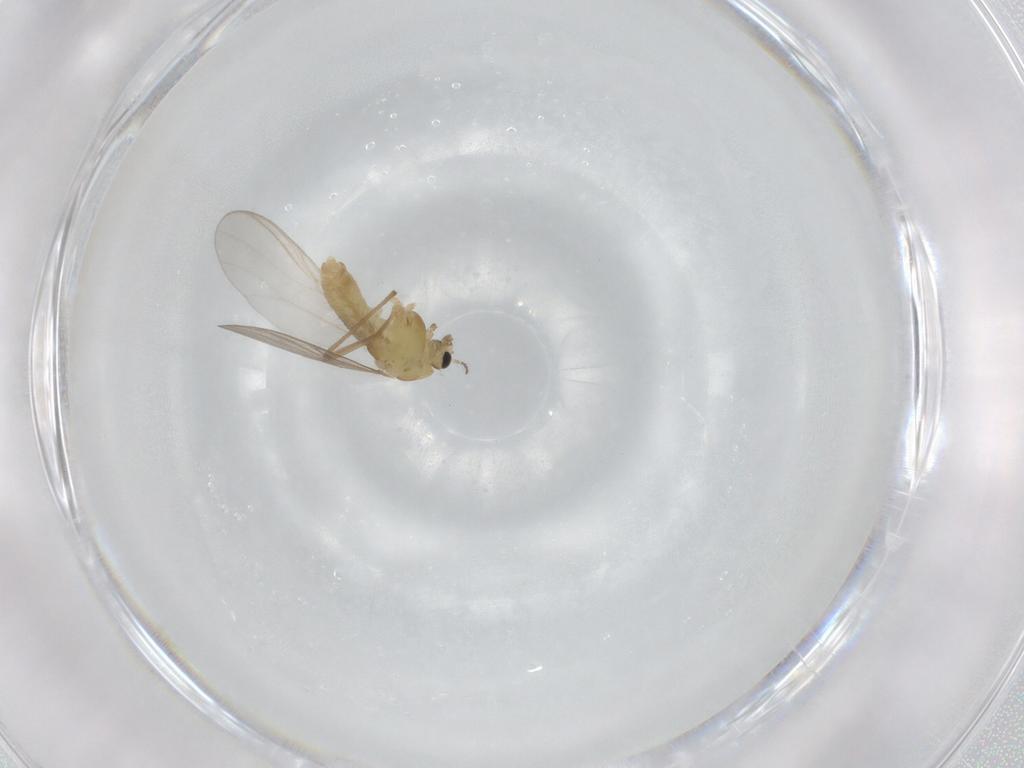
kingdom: Animalia
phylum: Arthropoda
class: Insecta
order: Diptera
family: Chironomidae
